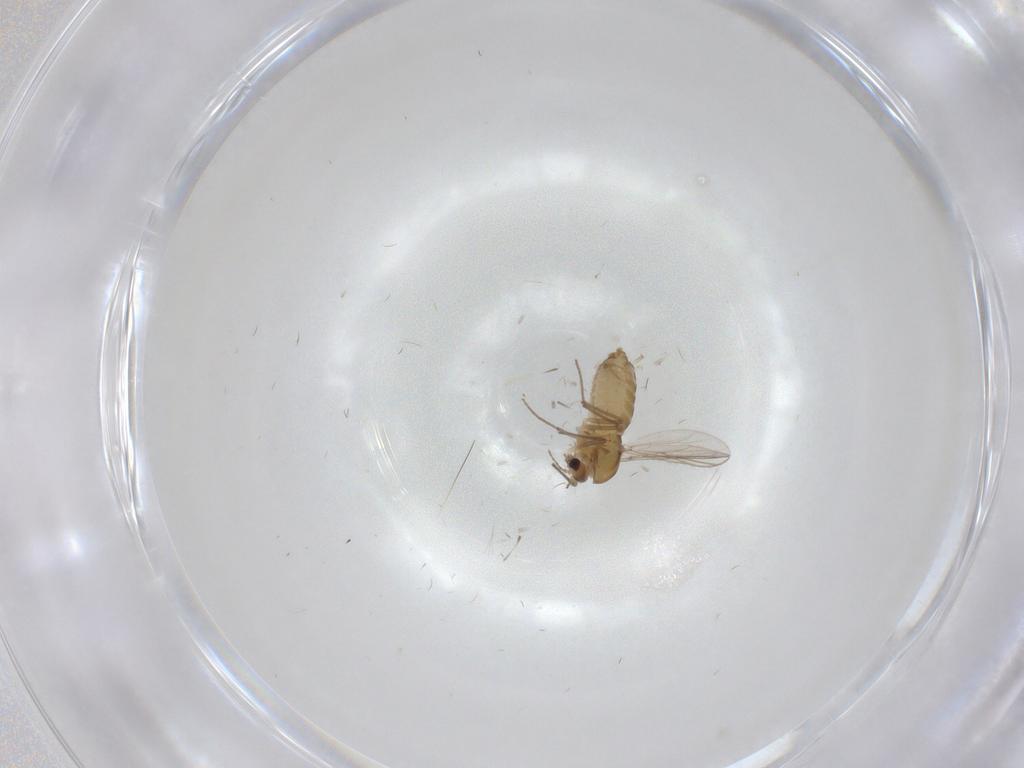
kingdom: Animalia
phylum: Arthropoda
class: Insecta
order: Diptera
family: Chironomidae
